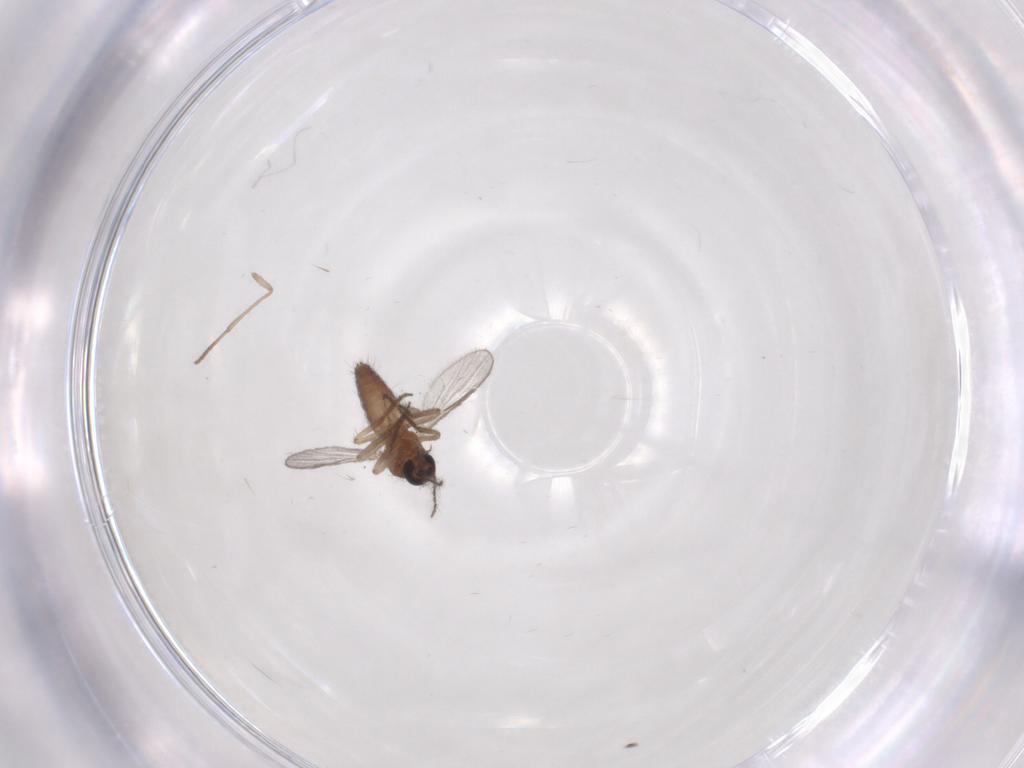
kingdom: Animalia
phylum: Arthropoda
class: Insecta
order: Diptera
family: Ceratopogonidae
